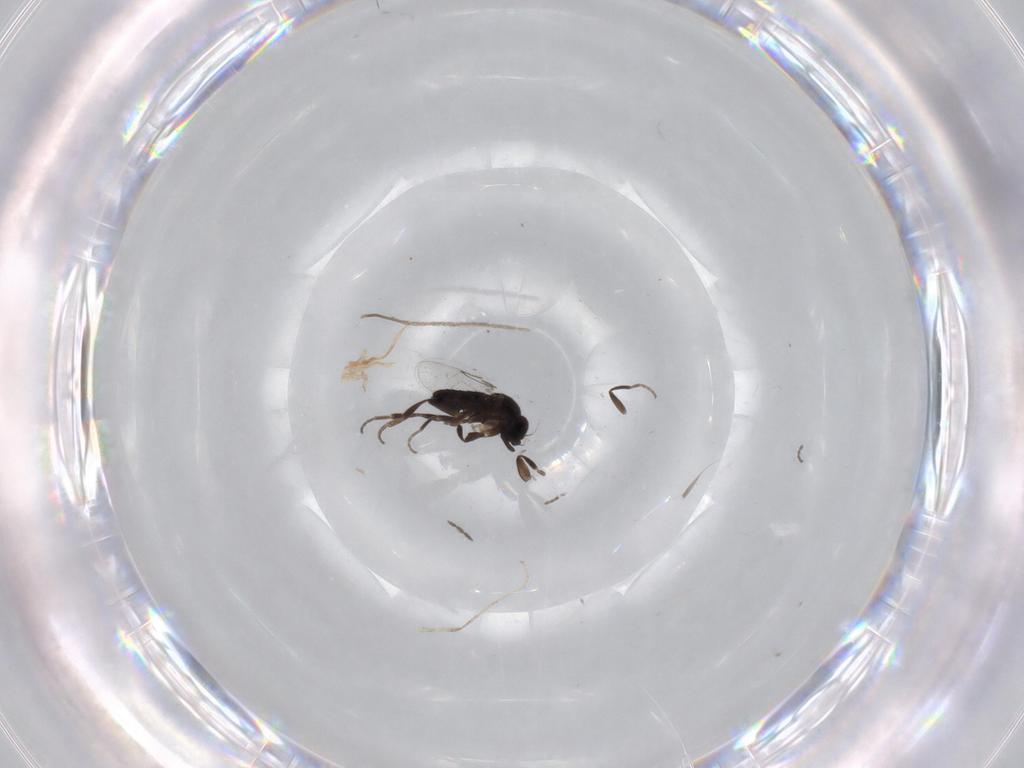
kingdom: Animalia
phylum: Arthropoda
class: Insecta
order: Diptera
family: Phoridae
